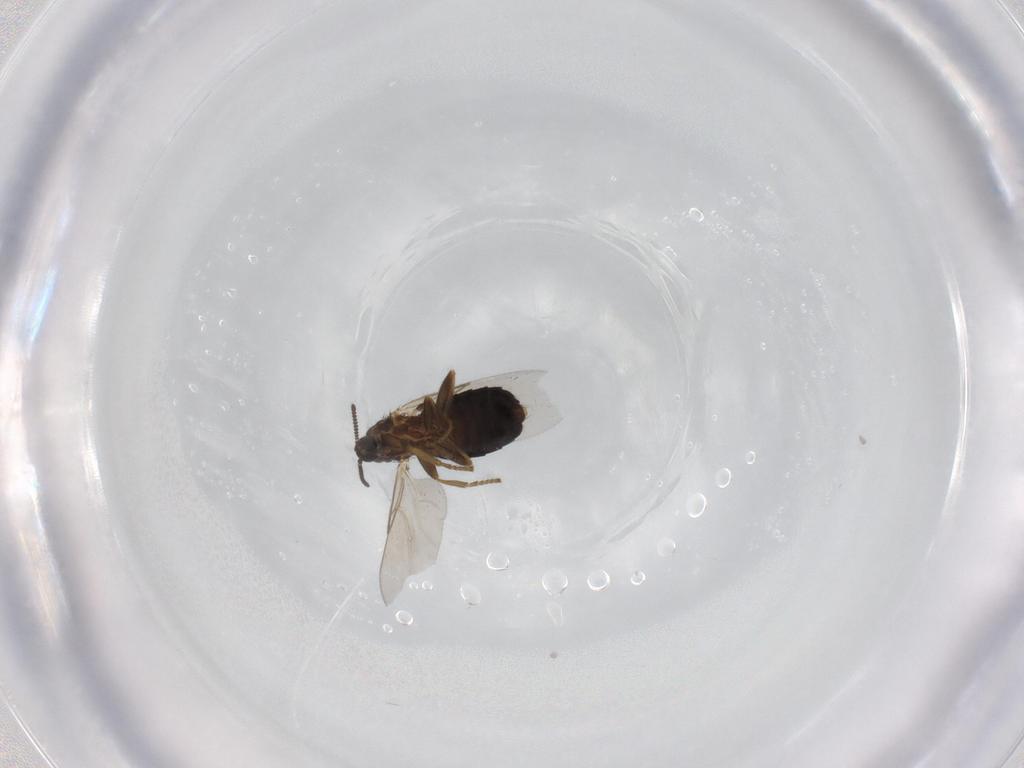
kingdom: Animalia
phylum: Arthropoda
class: Insecta
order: Diptera
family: Scatopsidae
